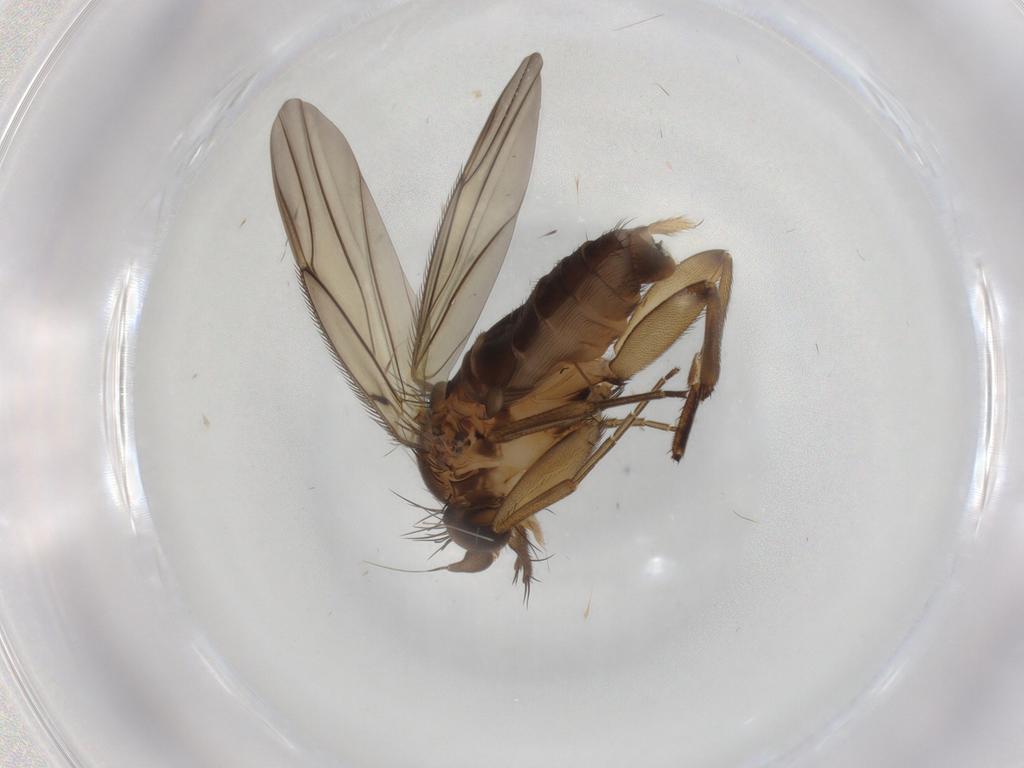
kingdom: Animalia
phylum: Arthropoda
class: Insecta
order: Diptera
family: Phoridae
